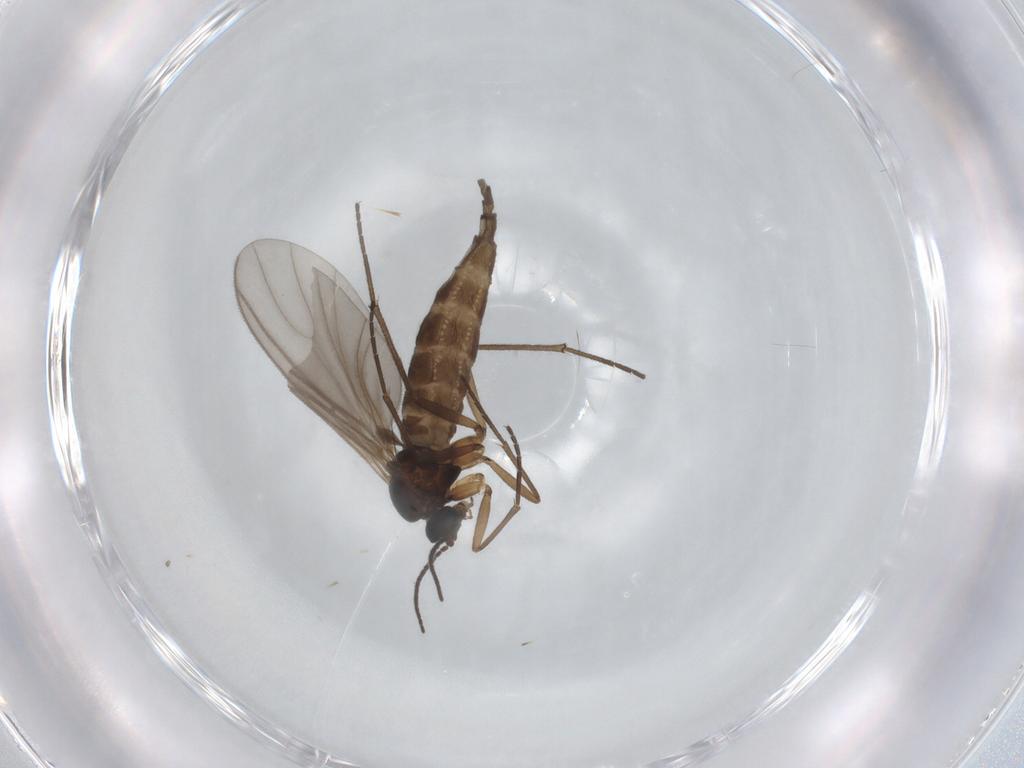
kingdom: Animalia
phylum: Arthropoda
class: Insecta
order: Diptera
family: Sciaridae
